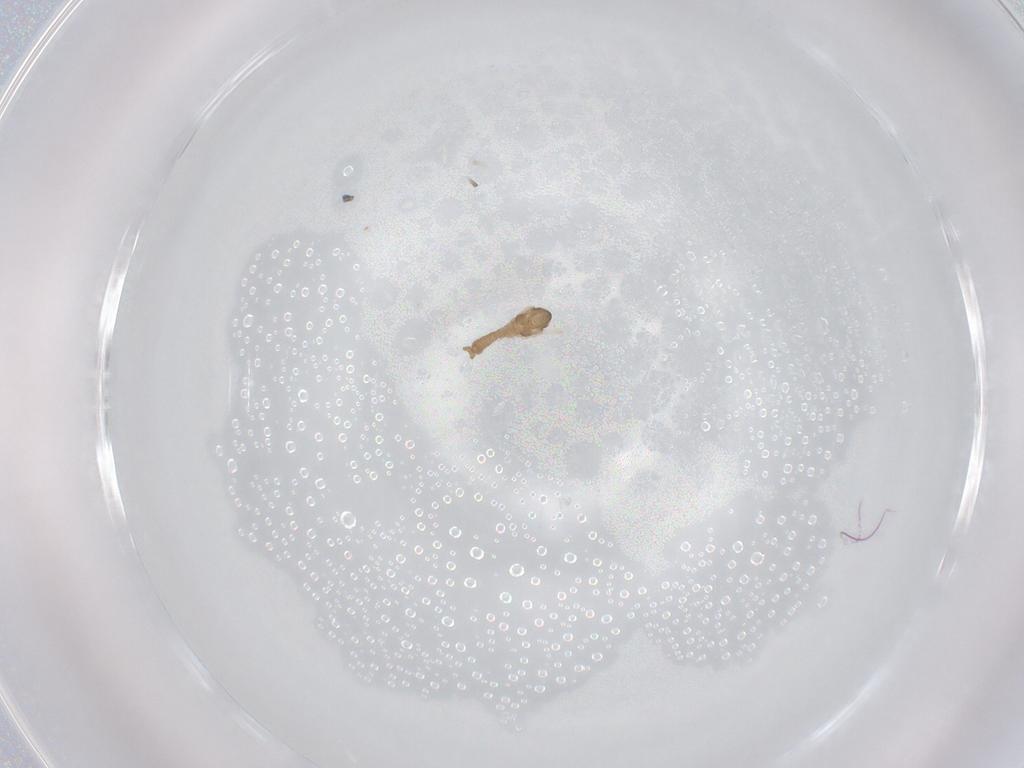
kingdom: Animalia
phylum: Arthropoda
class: Insecta
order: Diptera
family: Cecidomyiidae
